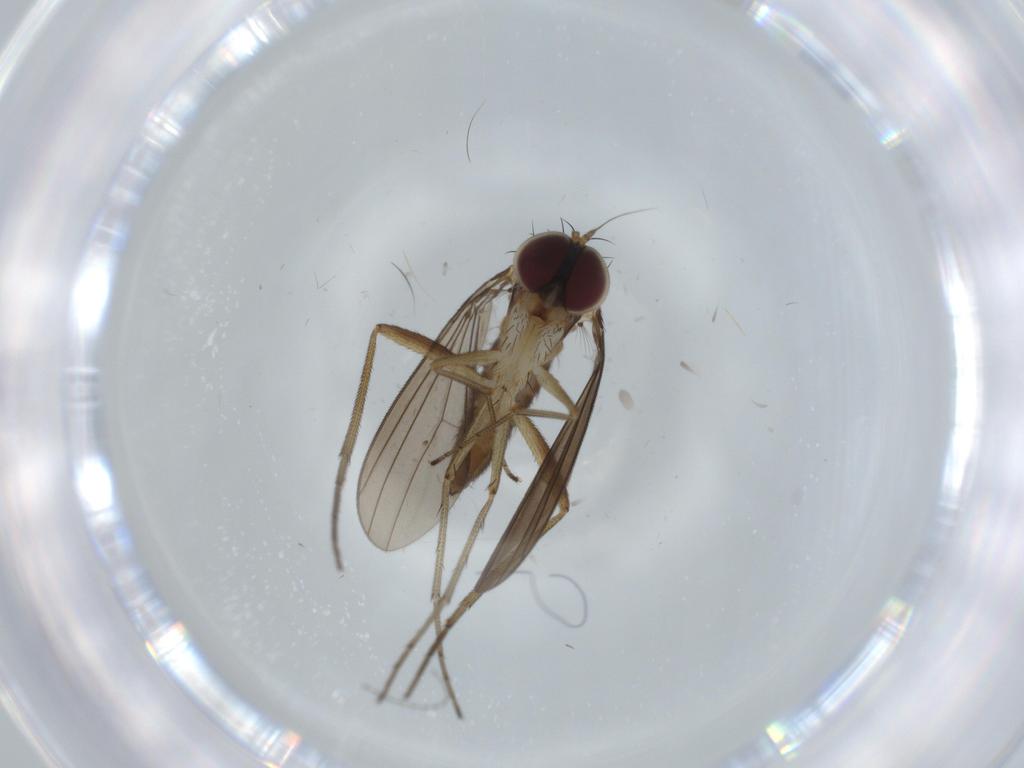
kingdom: Animalia
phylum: Arthropoda
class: Insecta
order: Diptera
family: Dolichopodidae
